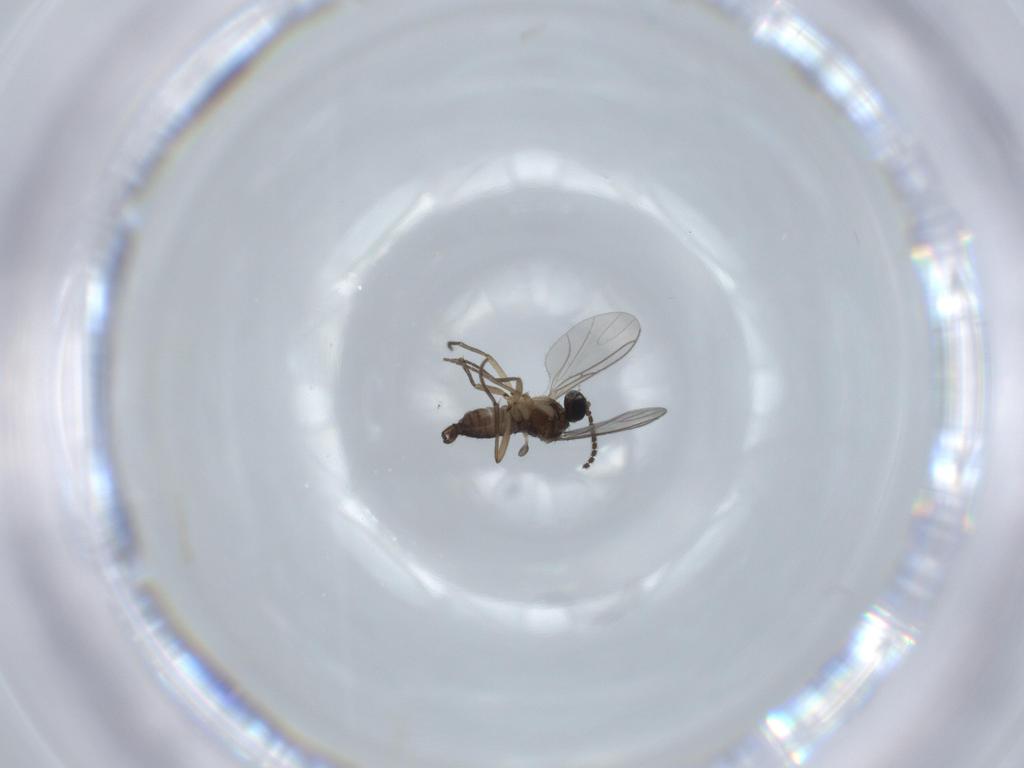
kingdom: Animalia
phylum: Arthropoda
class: Insecta
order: Diptera
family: Sciaridae
